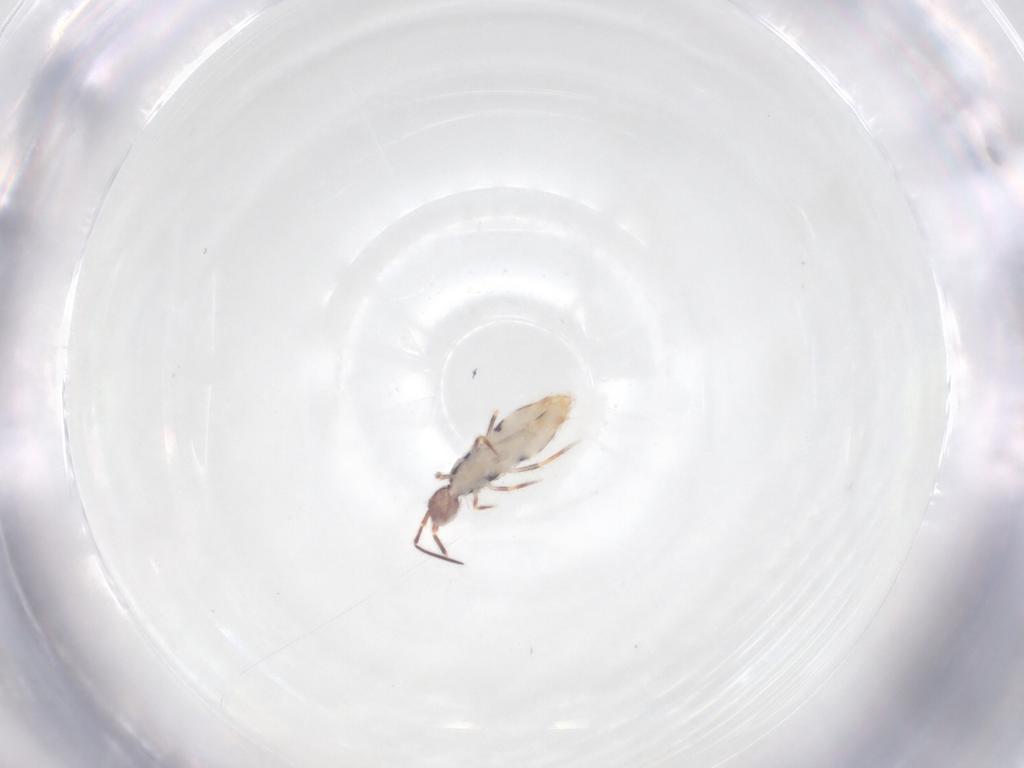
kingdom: Animalia
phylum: Arthropoda
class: Collembola
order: Entomobryomorpha
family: Entomobryidae
